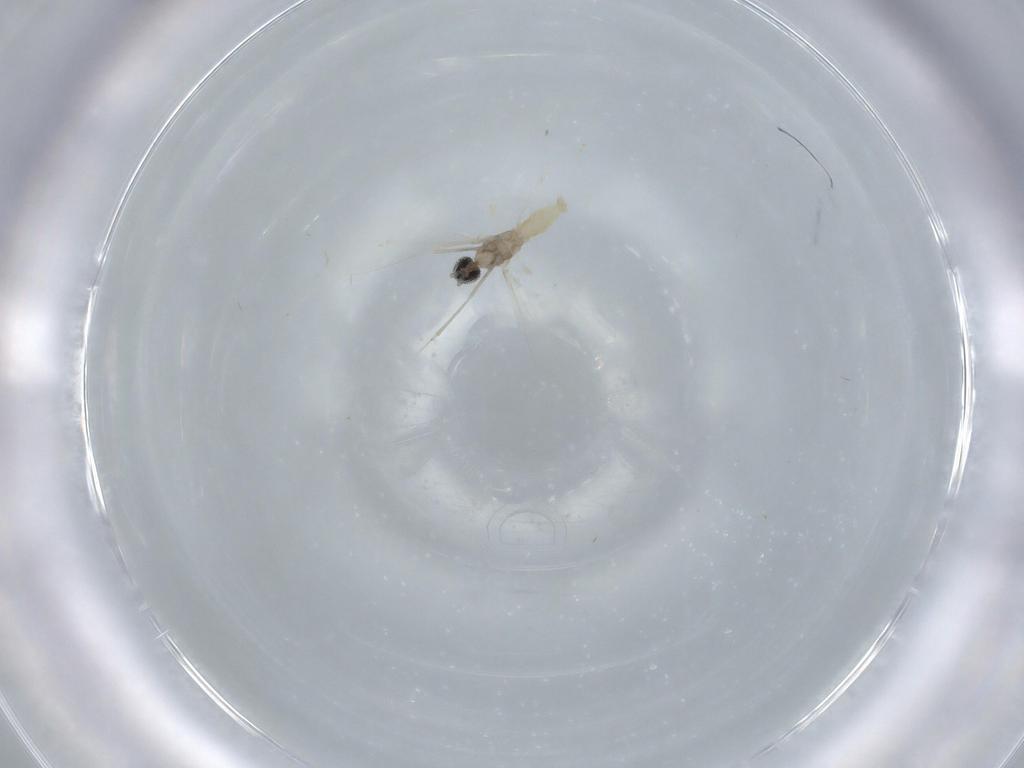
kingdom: Animalia
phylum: Arthropoda
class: Insecta
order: Diptera
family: Cecidomyiidae
